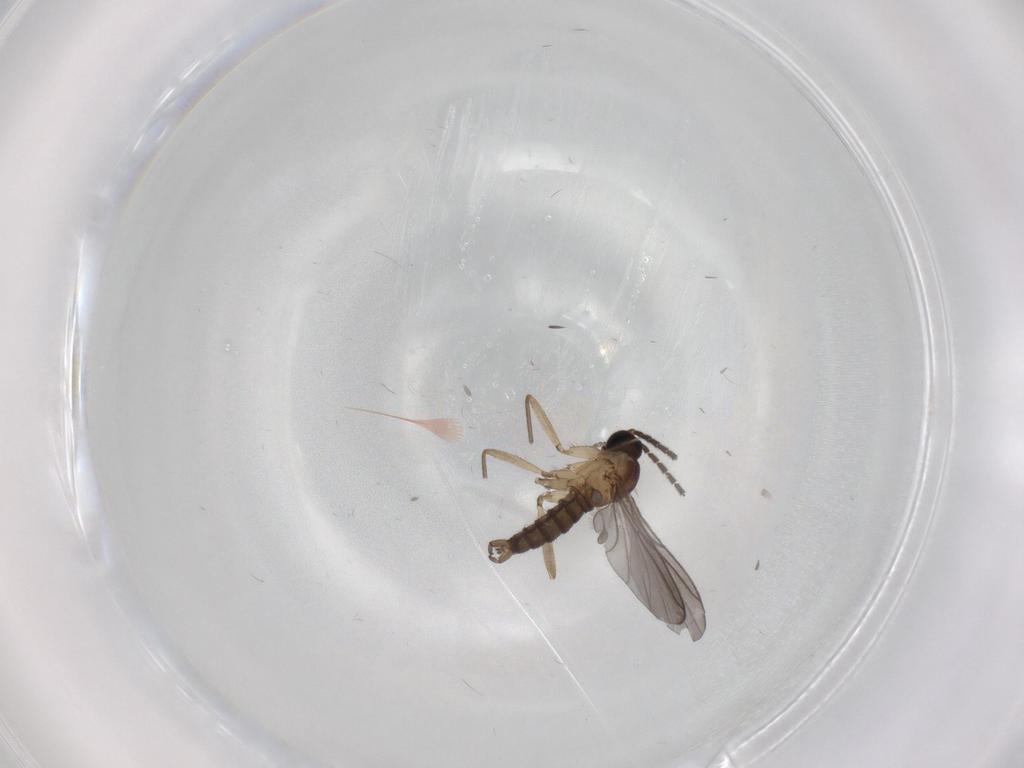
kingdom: Animalia
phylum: Arthropoda
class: Insecta
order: Diptera
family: Sciaridae
